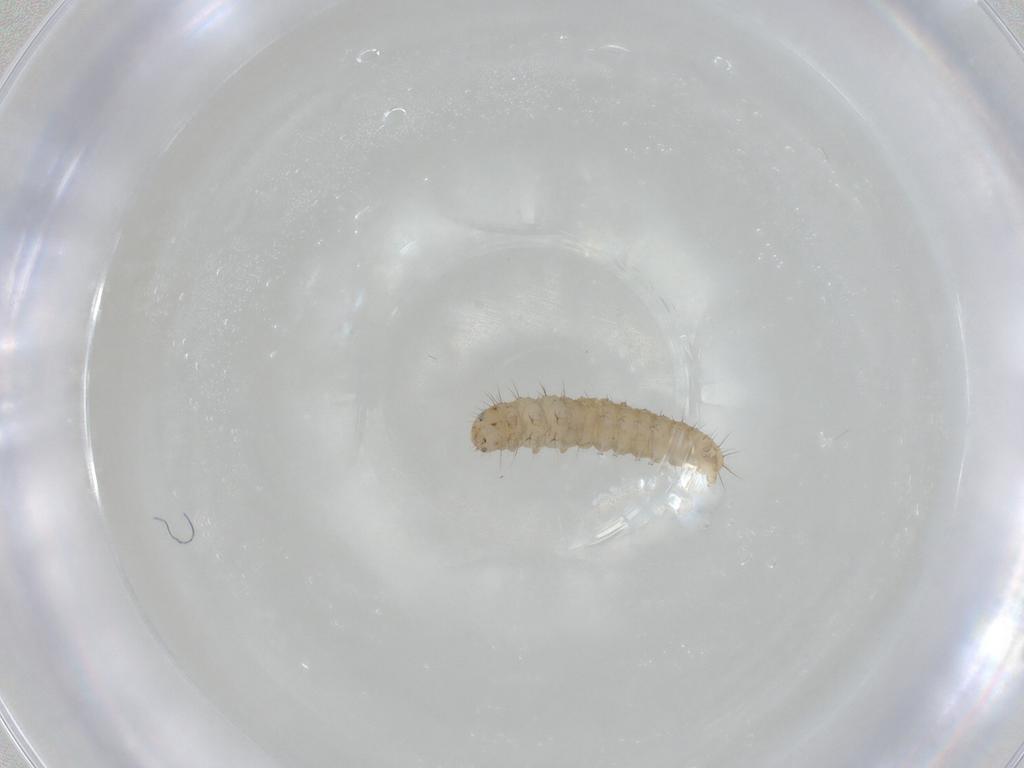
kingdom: Animalia
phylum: Arthropoda
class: Insecta
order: Lepidoptera
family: Gelechiidae
